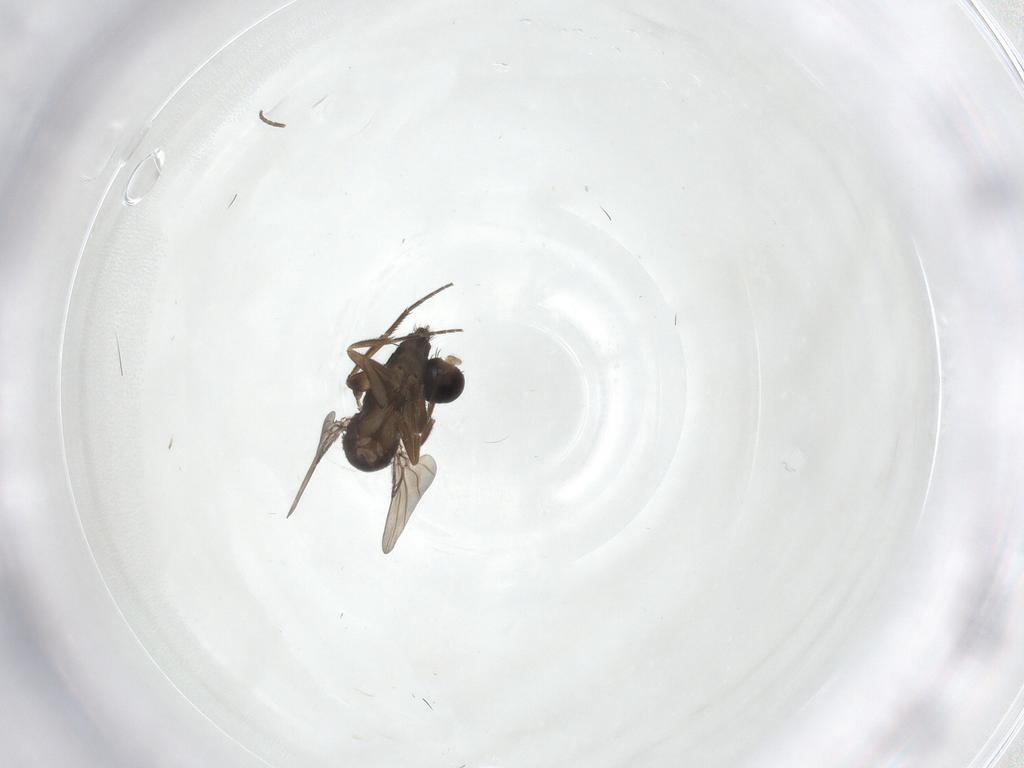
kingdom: Animalia
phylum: Arthropoda
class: Insecta
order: Diptera
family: Phoridae
